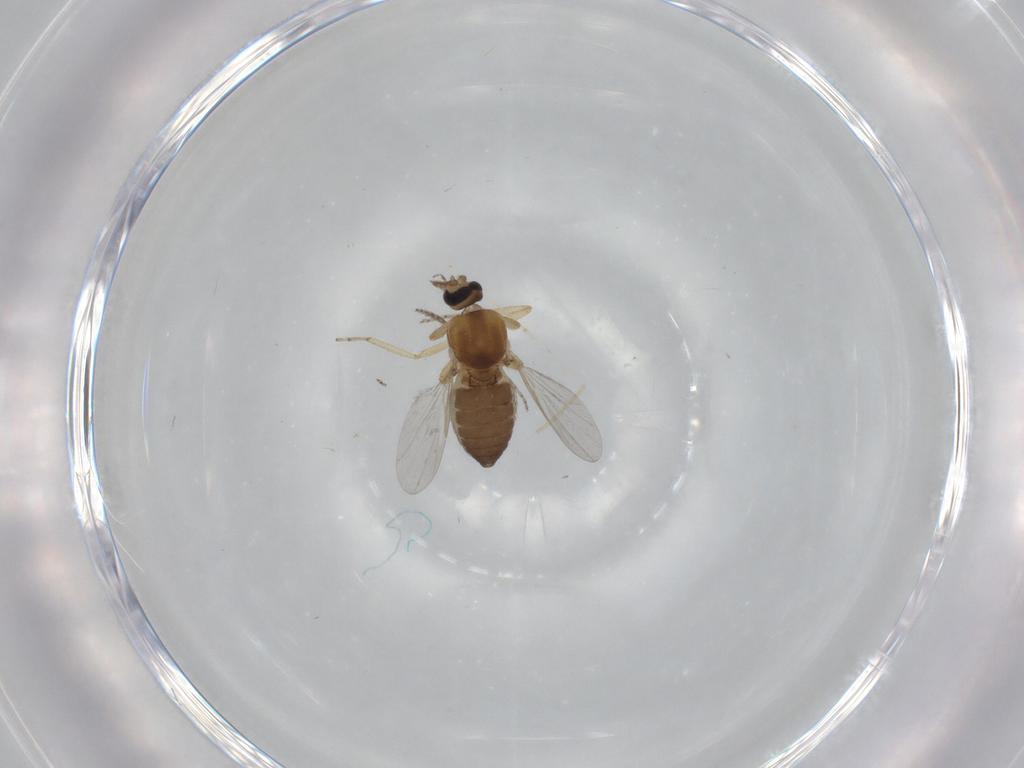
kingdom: Animalia
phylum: Arthropoda
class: Insecta
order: Diptera
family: Ceratopogonidae
